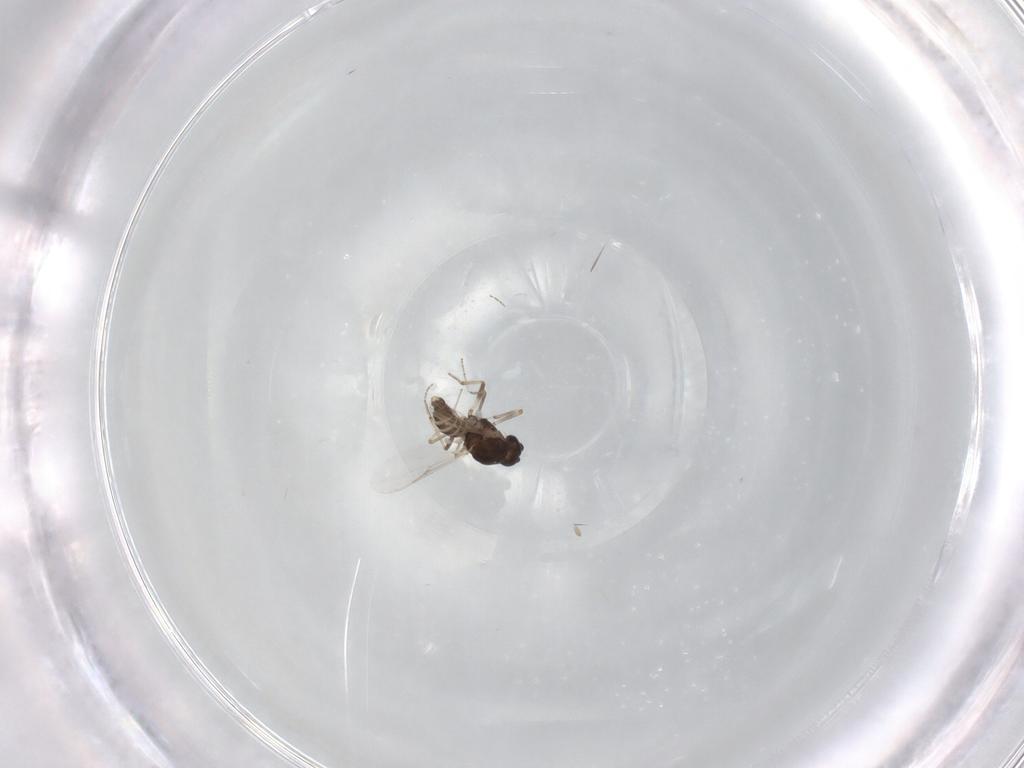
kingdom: Animalia
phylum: Arthropoda
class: Insecta
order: Diptera
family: Ceratopogonidae
